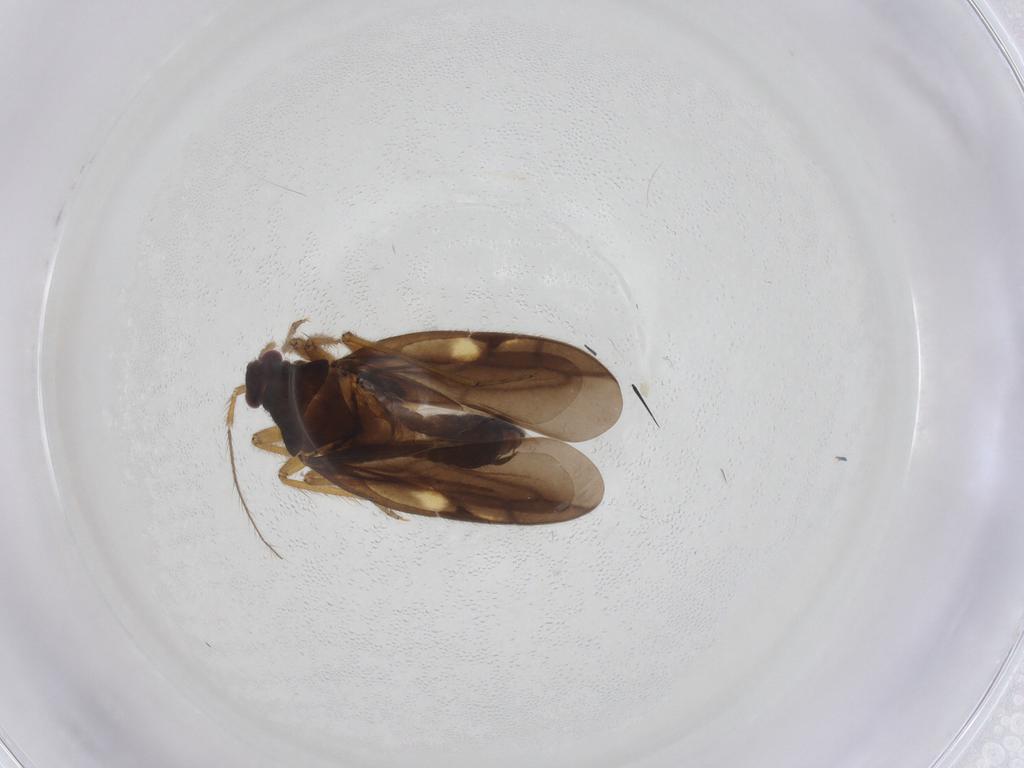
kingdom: Animalia
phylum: Arthropoda
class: Insecta
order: Hemiptera
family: Ceratocombidae
